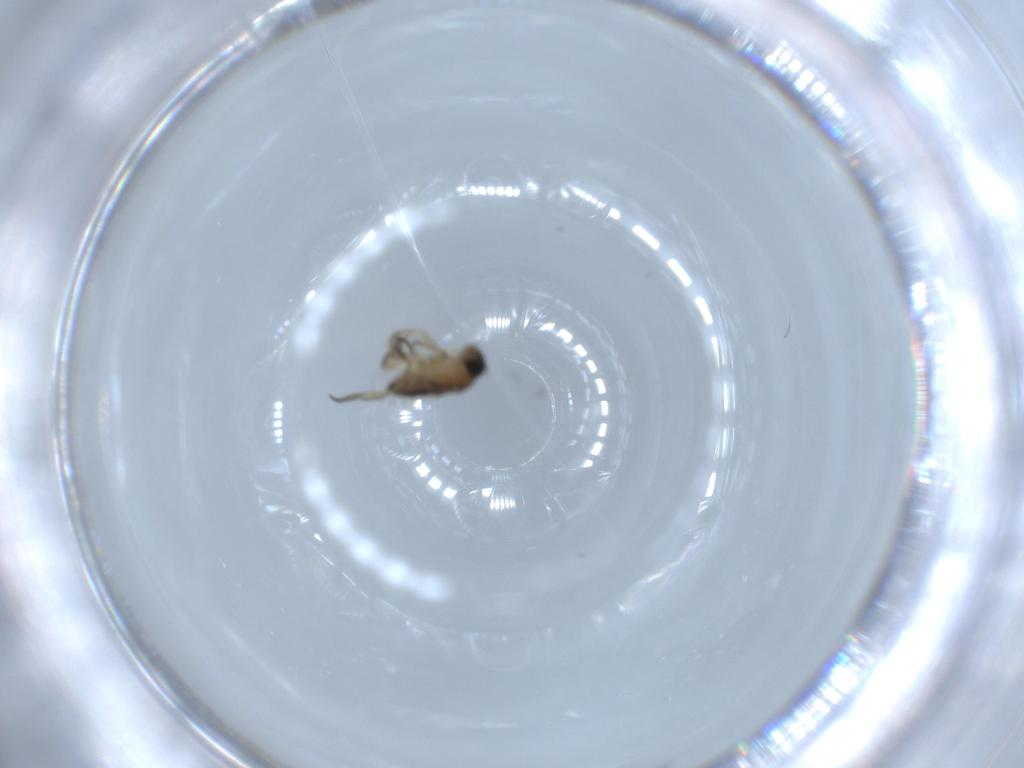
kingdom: Animalia
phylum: Arthropoda
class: Insecta
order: Diptera
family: Phoridae
